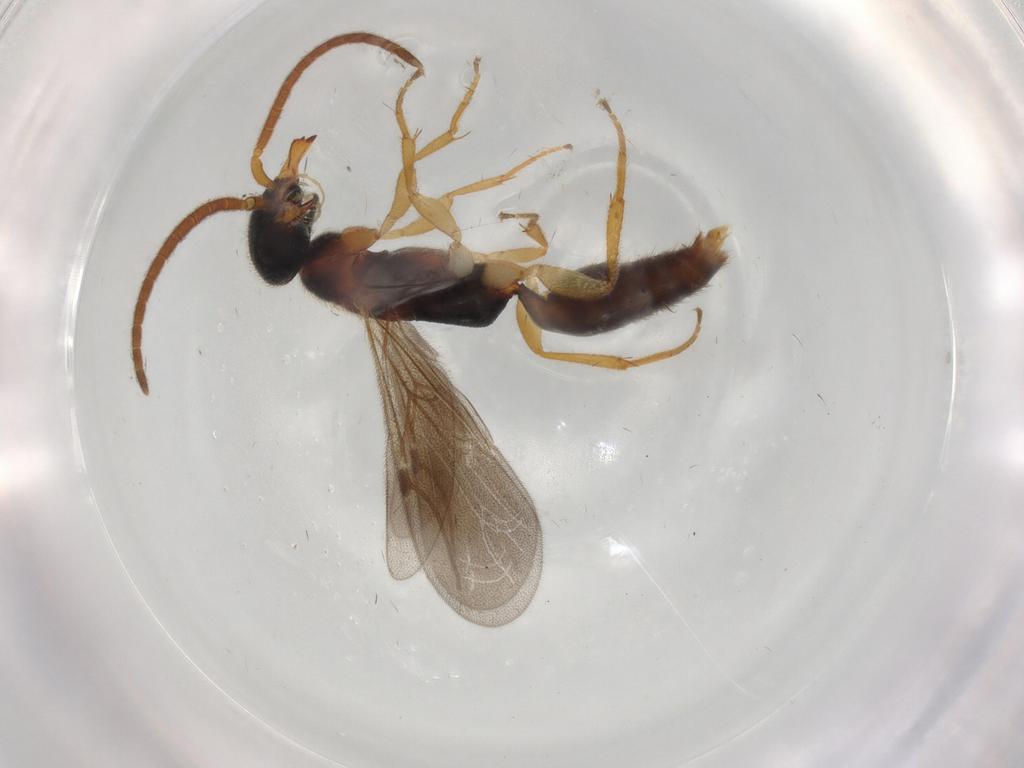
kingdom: Animalia
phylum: Arthropoda
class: Insecta
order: Hymenoptera
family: Bethylidae
